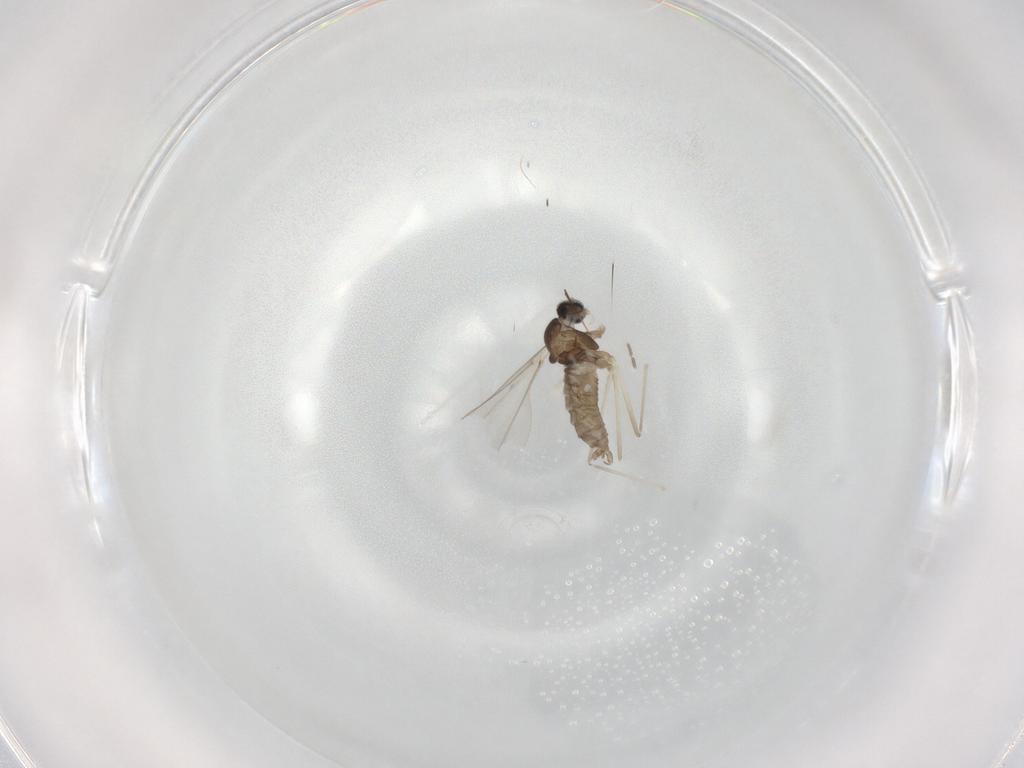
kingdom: Animalia
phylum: Arthropoda
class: Insecta
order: Diptera
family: Cecidomyiidae
